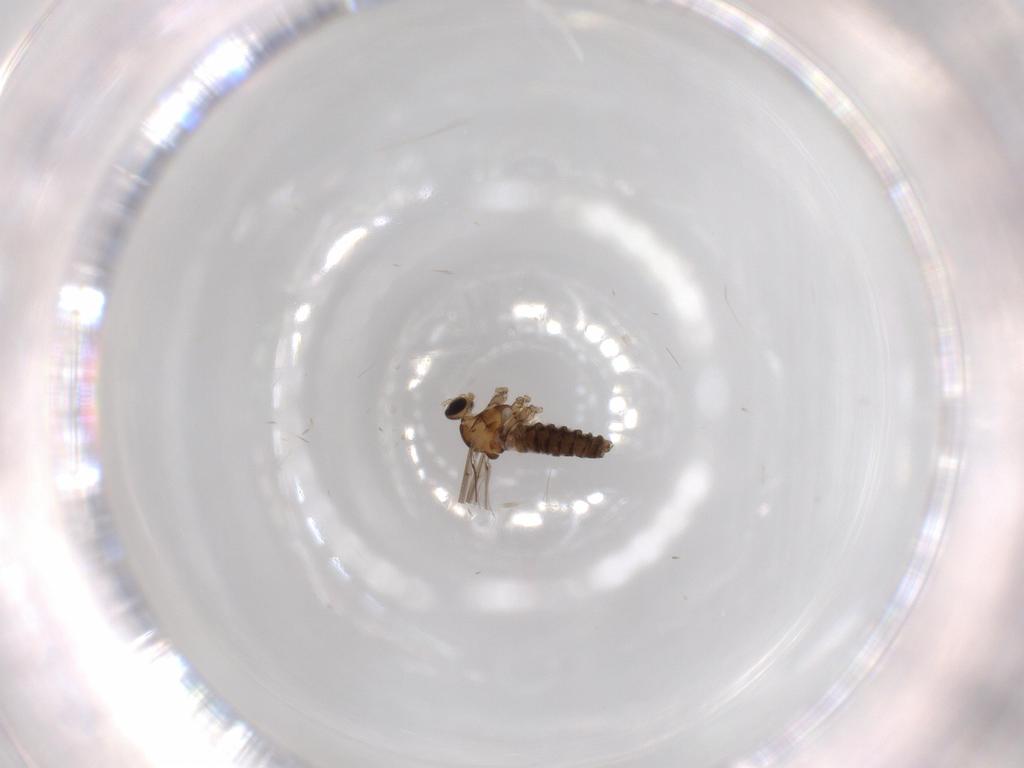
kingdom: Animalia
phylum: Arthropoda
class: Insecta
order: Diptera
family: Cecidomyiidae
